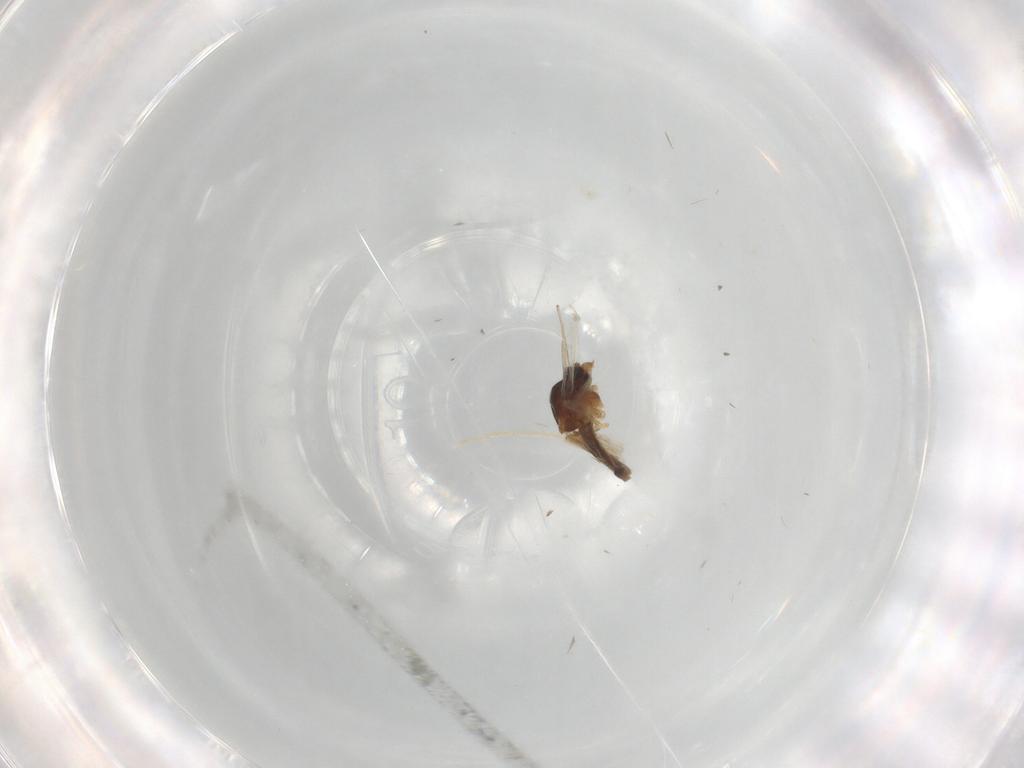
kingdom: Animalia
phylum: Arthropoda
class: Insecta
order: Diptera
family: Ceratopogonidae
